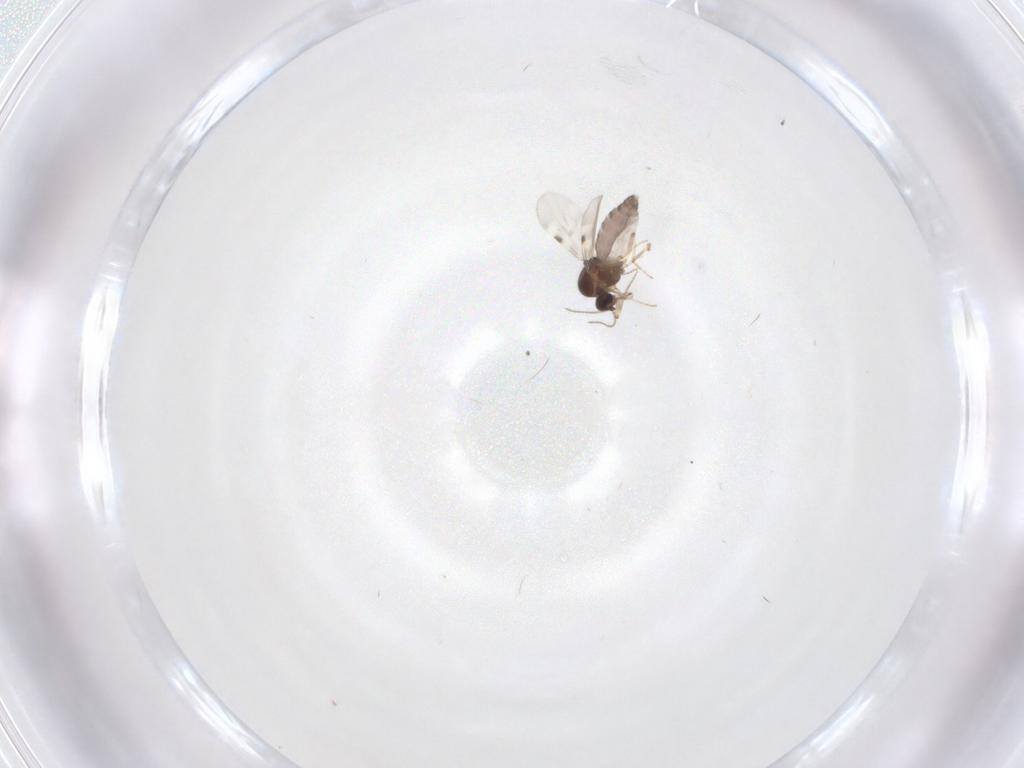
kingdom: Animalia
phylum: Arthropoda
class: Insecta
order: Diptera
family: Chironomidae
